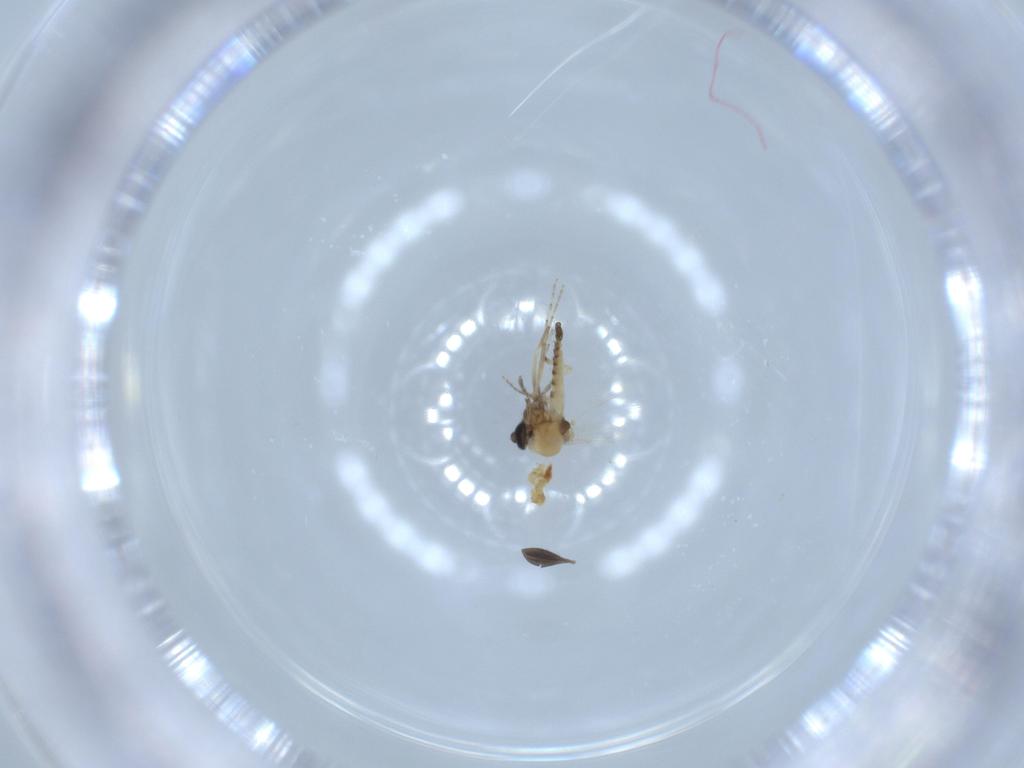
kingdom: Animalia
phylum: Arthropoda
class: Insecta
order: Diptera
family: Sciaridae
